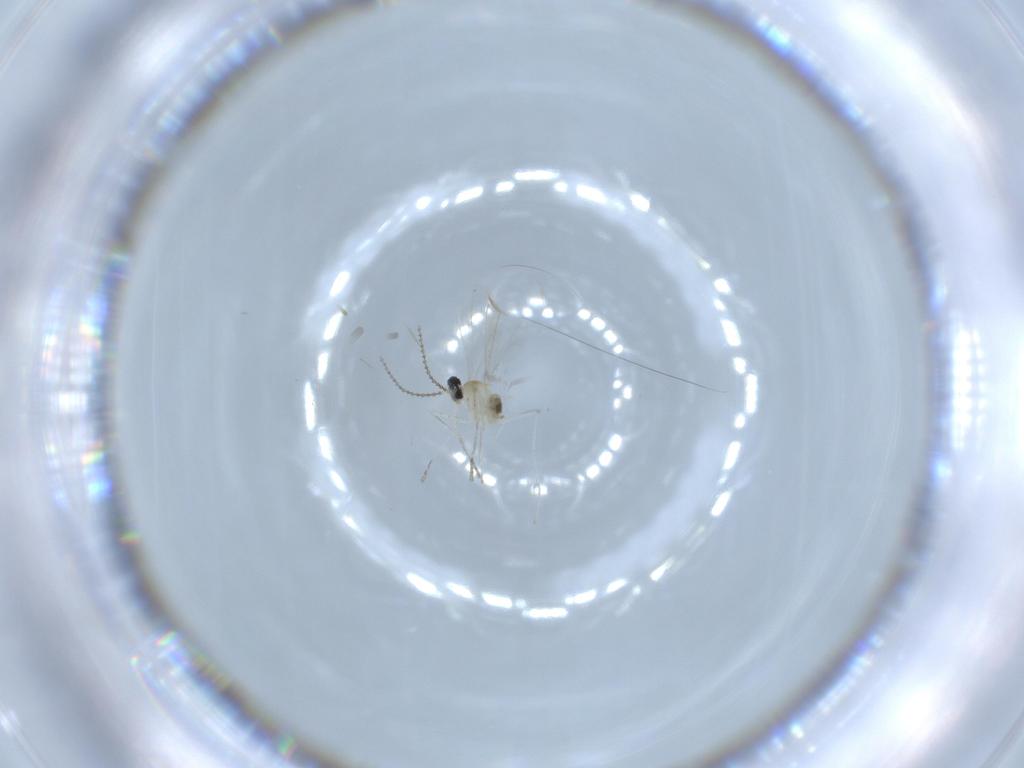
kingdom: Animalia
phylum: Arthropoda
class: Insecta
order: Diptera
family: Cecidomyiidae
